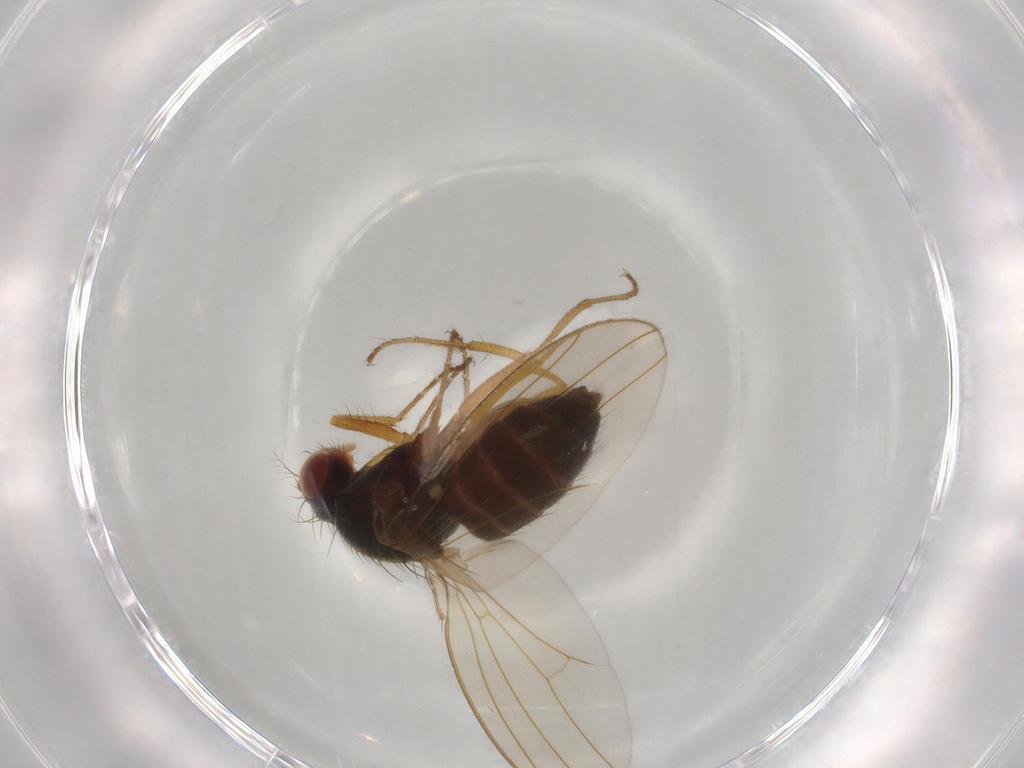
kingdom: Animalia
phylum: Arthropoda
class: Insecta
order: Diptera
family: Drosophilidae
